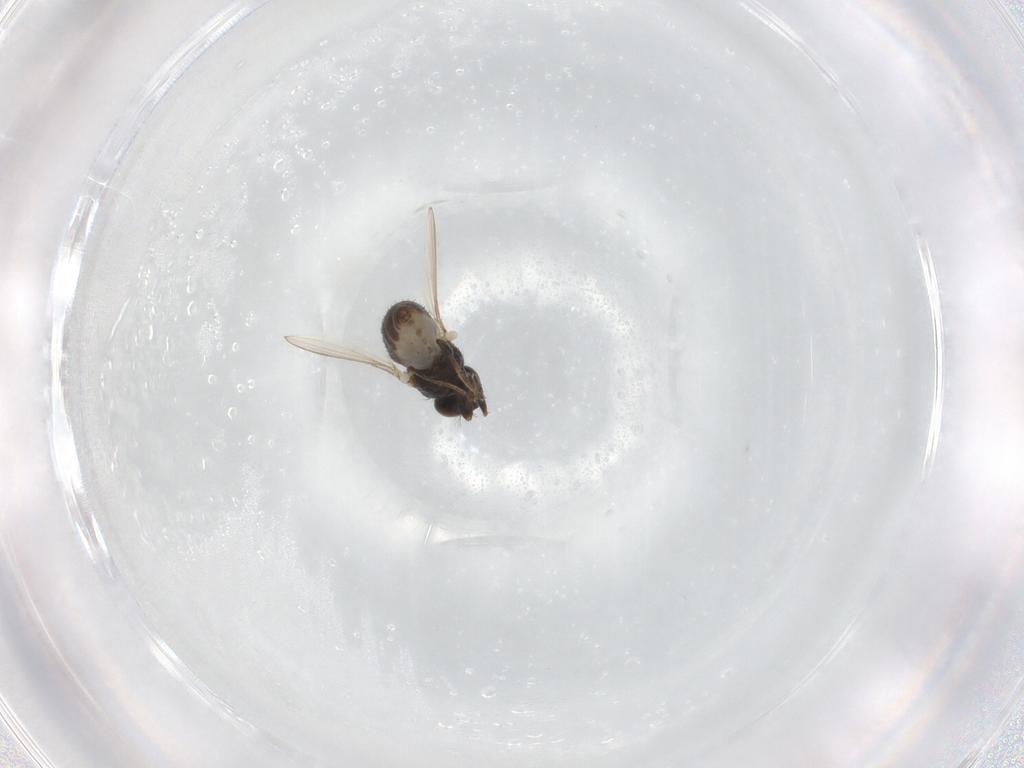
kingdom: Animalia
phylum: Arthropoda
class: Insecta
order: Diptera
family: Ephydridae
